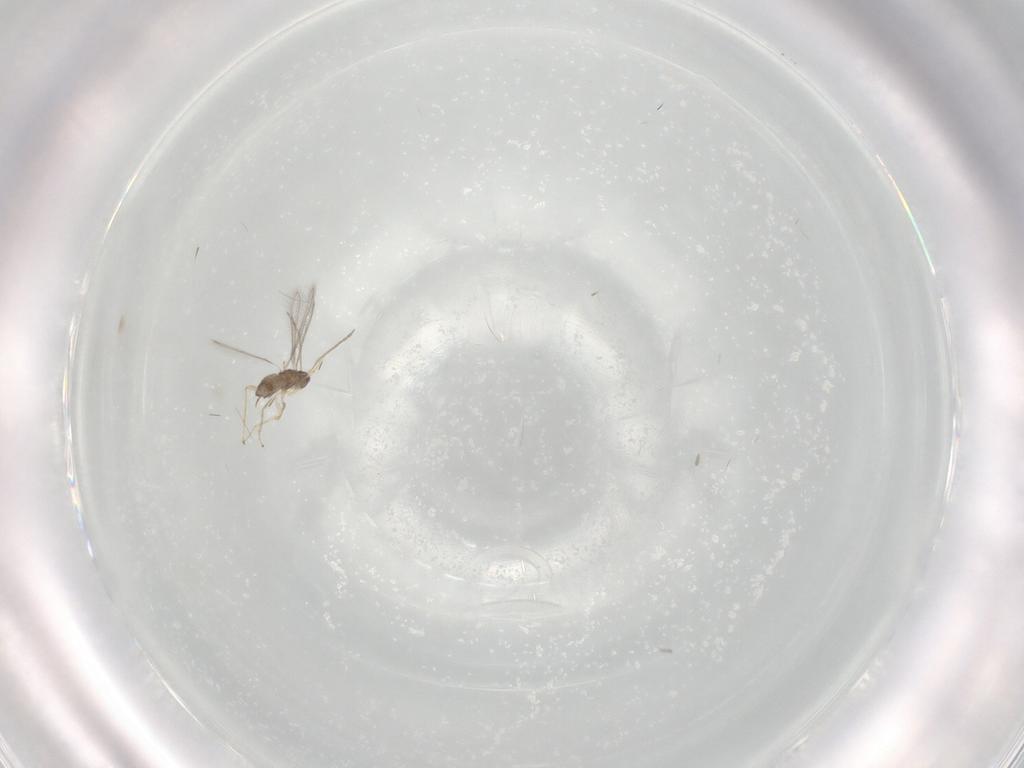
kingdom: Animalia
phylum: Arthropoda
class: Insecta
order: Hymenoptera
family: Mymaridae
